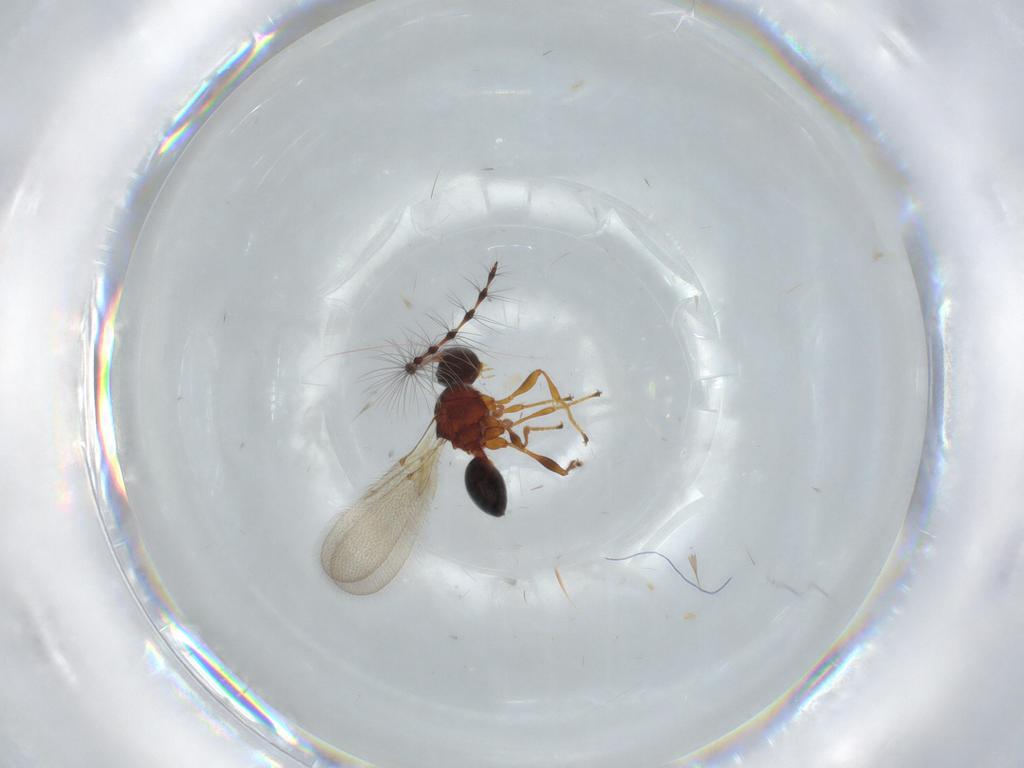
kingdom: Animalia
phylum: Arthropoda
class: Insecta
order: Hymenoptera
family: Diapriidae
